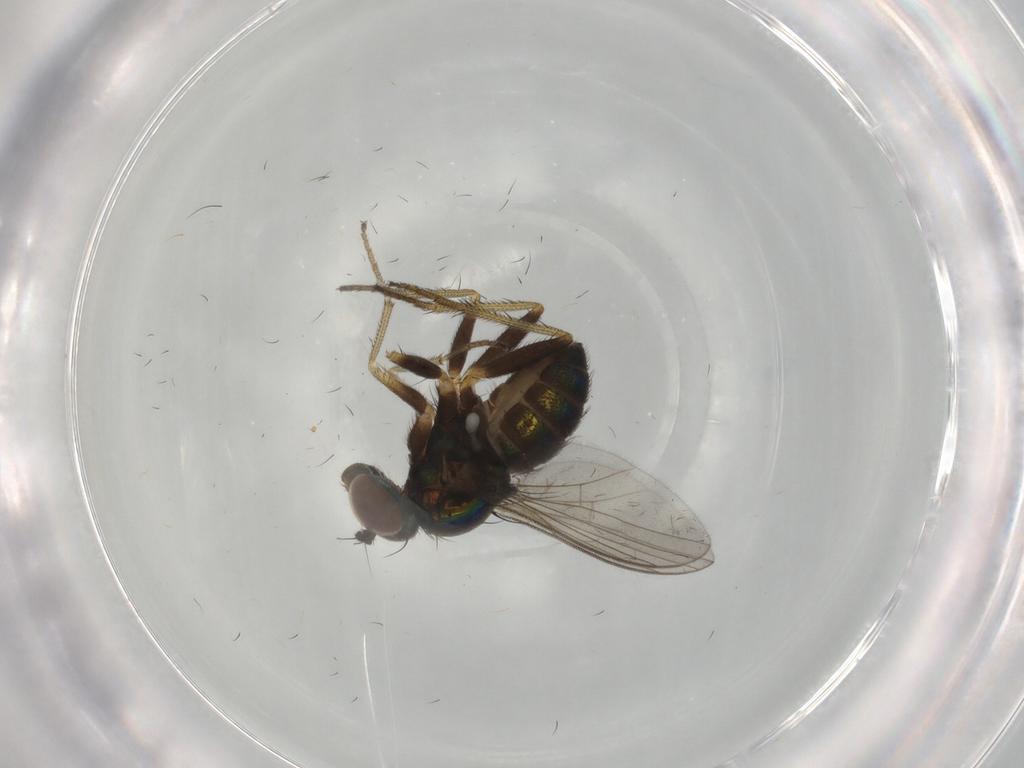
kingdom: Animalia
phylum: Arthropoda
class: Insecta
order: Diptera
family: Dolichopodidae
